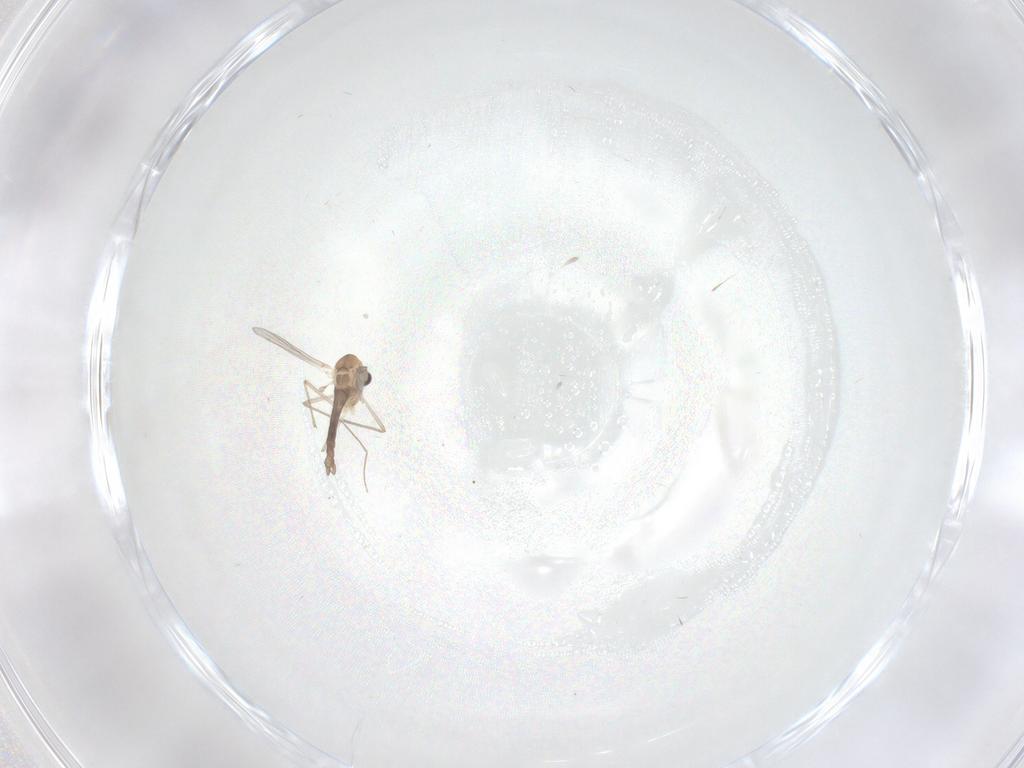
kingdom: Animalia
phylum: Arthropoda
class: Insecta
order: Diptera
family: Chironomidae
